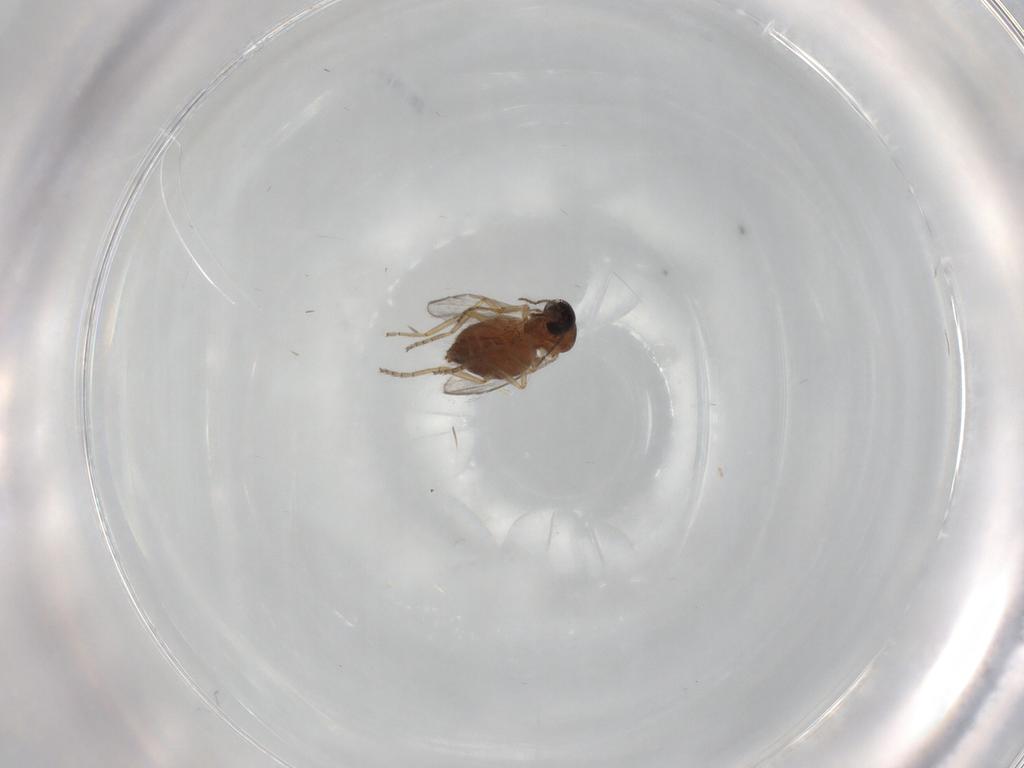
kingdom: Animalia
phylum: Arthropoda
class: Insecta
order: Diptera
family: Ceratopogonidae
